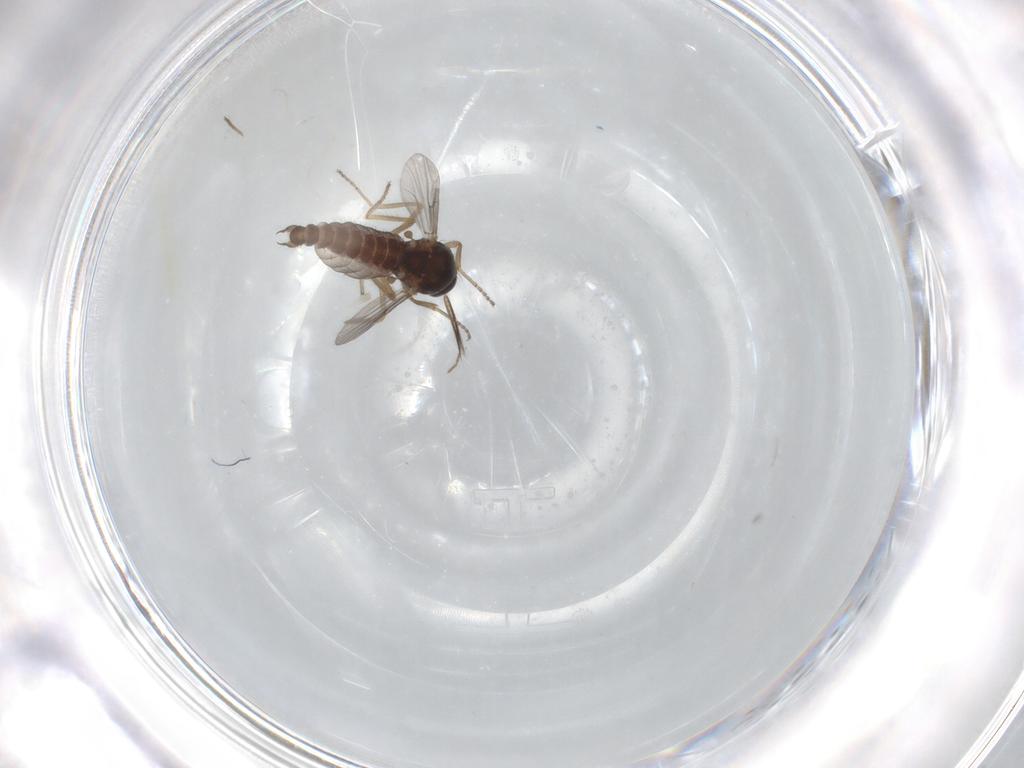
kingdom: Animalia
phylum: Arthropoda
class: Insecta
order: Diptera
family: Ceratopogonidae
